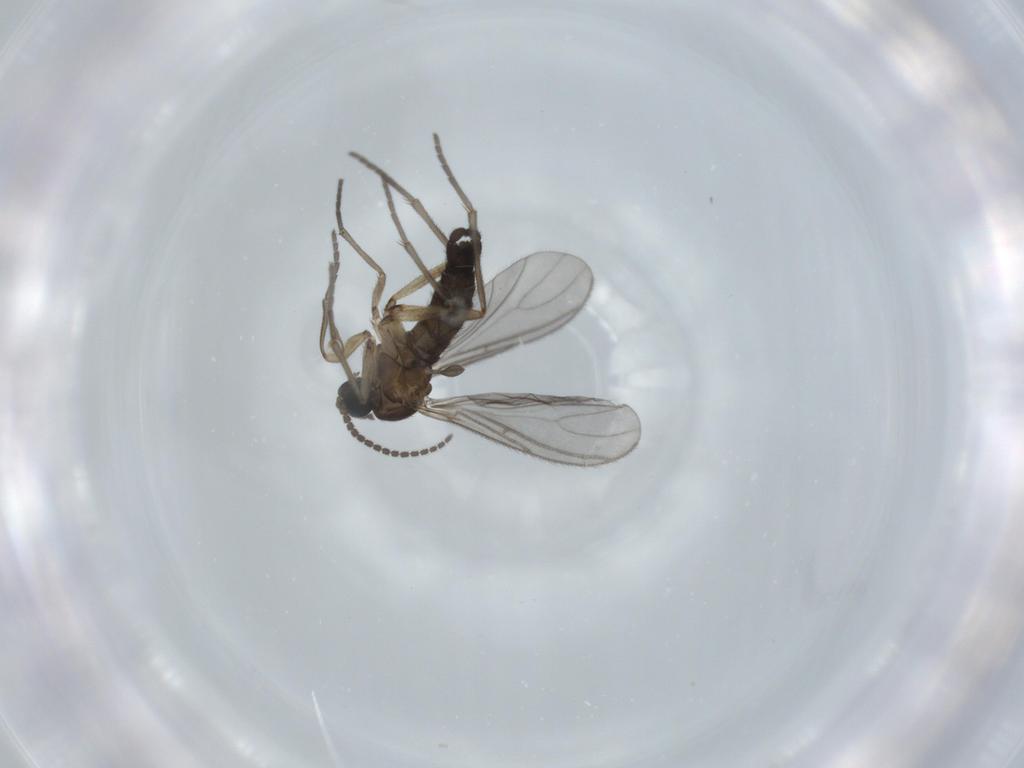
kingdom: Animalia
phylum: Arthropoda
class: Insecta
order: Diptera
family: Sciaridae
